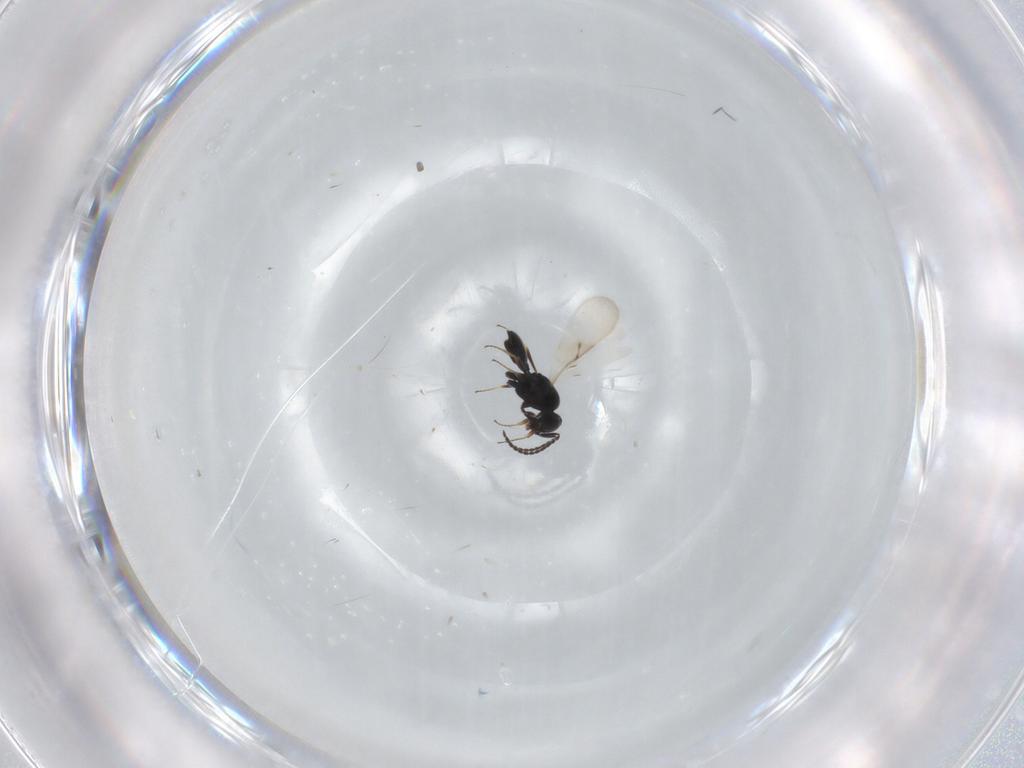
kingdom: Animalia
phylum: Arthropoda
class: Insecta
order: Hymenoptera
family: Scelionidae
